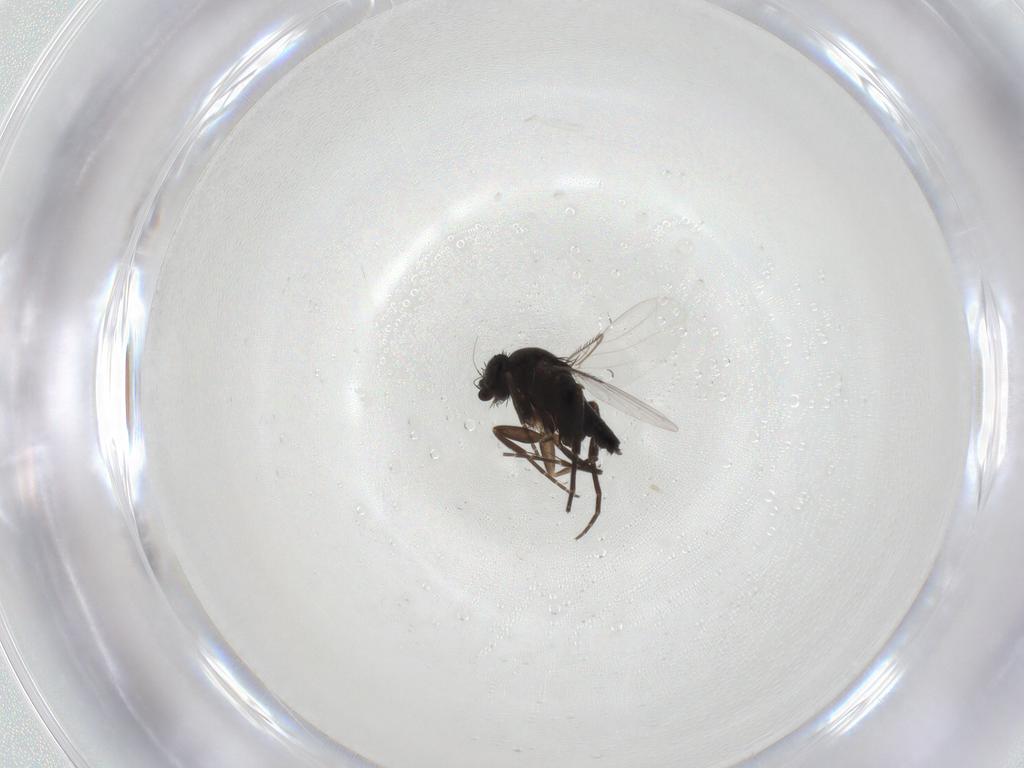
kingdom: Animalia
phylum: Arthropoda
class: Insecta
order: Diptera
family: Phoridae
